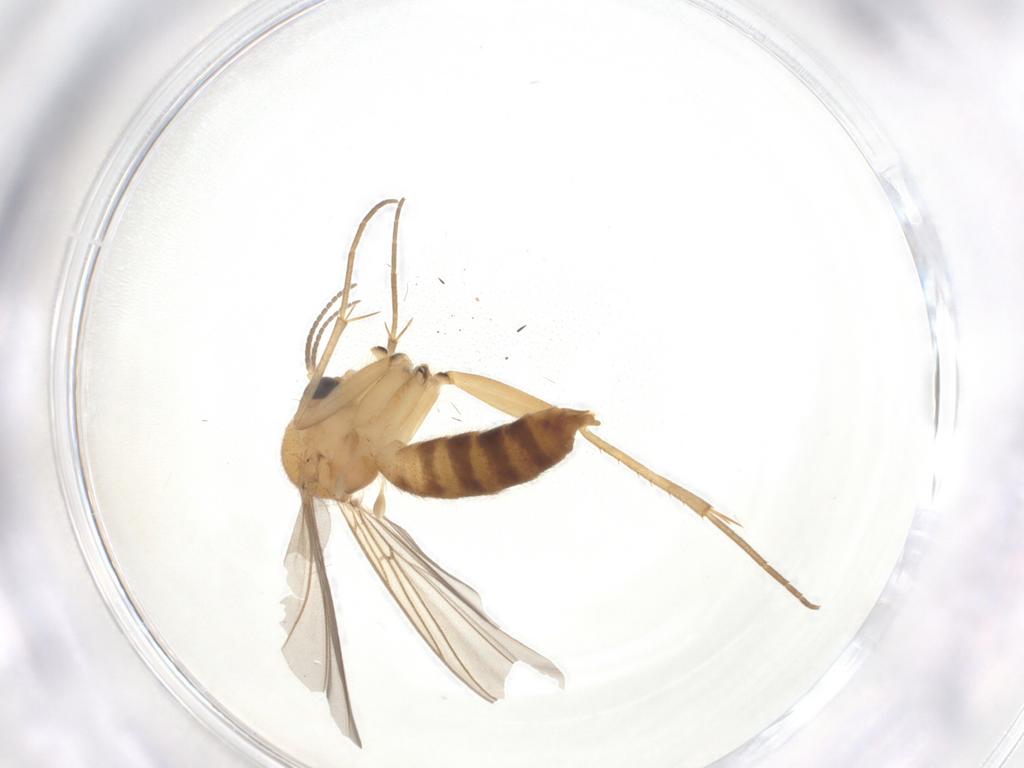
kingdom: Animalia
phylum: Arthropoda
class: Insecta
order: Diptera
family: Mycetophilidae
